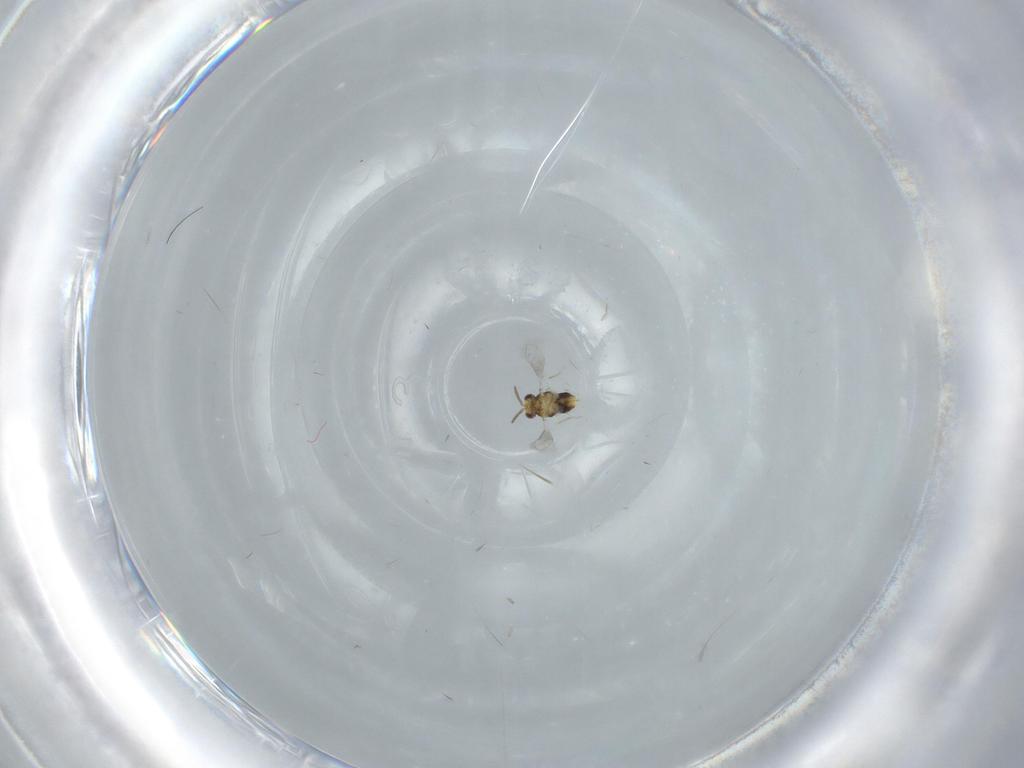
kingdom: Animalia
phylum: Arthropoda
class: Insecta
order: Hymenoptera
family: Aphelinidae
